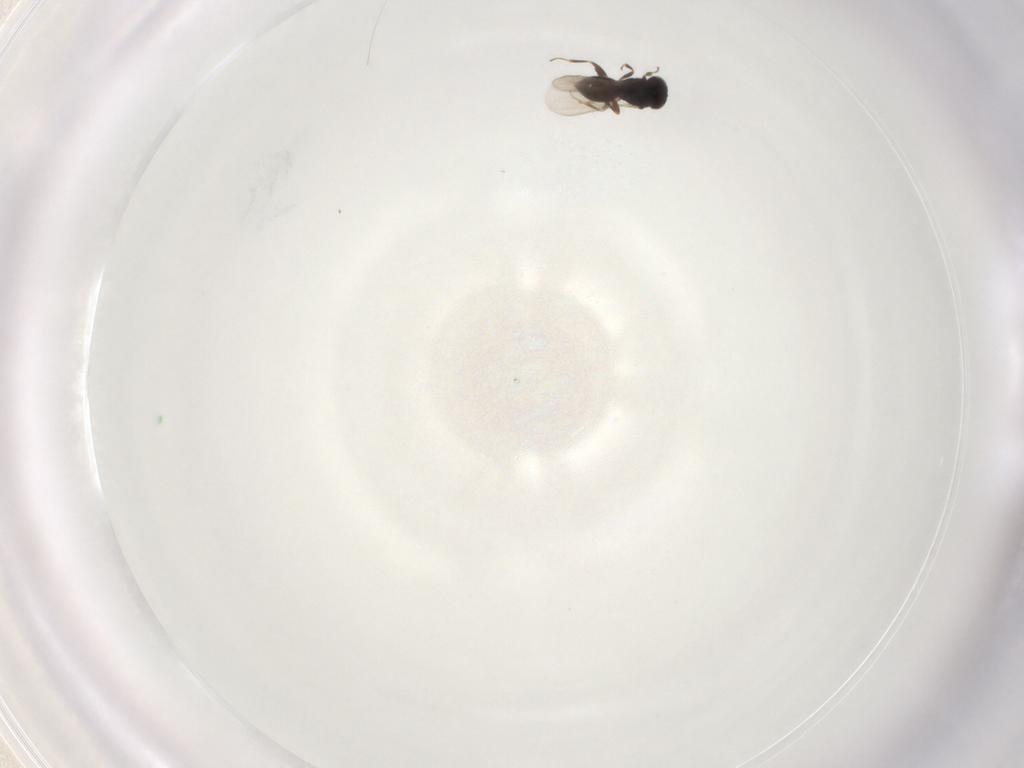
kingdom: Animalia
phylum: Arthropoda
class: Insecta
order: Hymenoptera
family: Scelionidae
